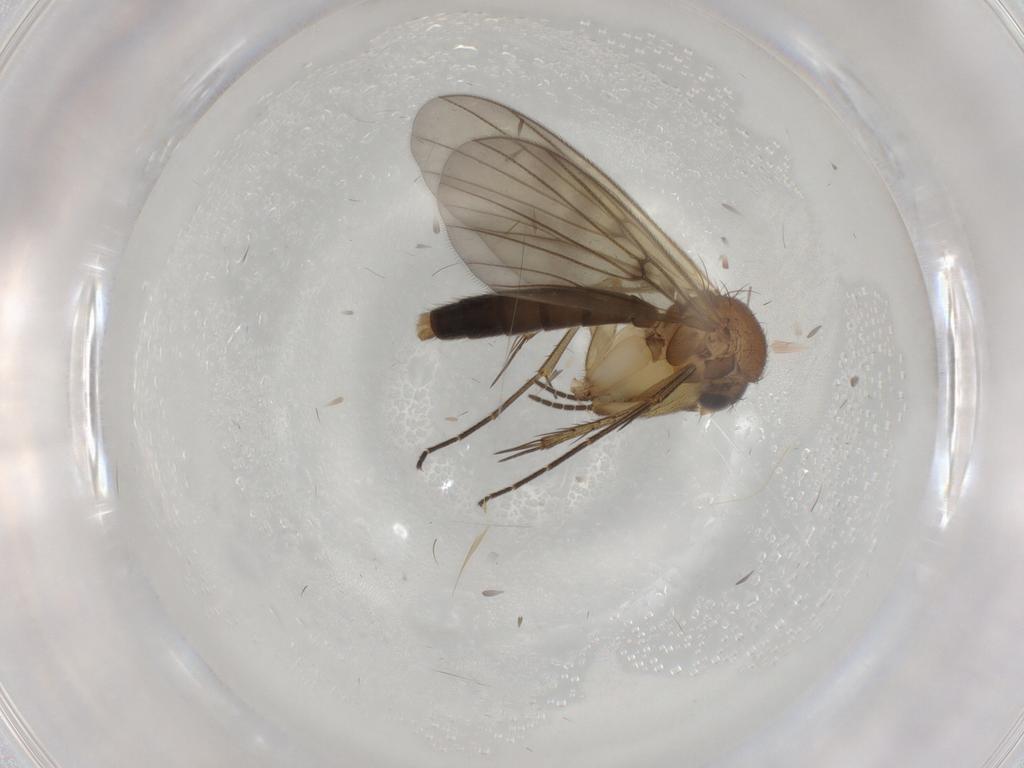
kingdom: Animalia
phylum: Arthropoda
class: Insecta
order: Diptera
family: Mycetophilidae
